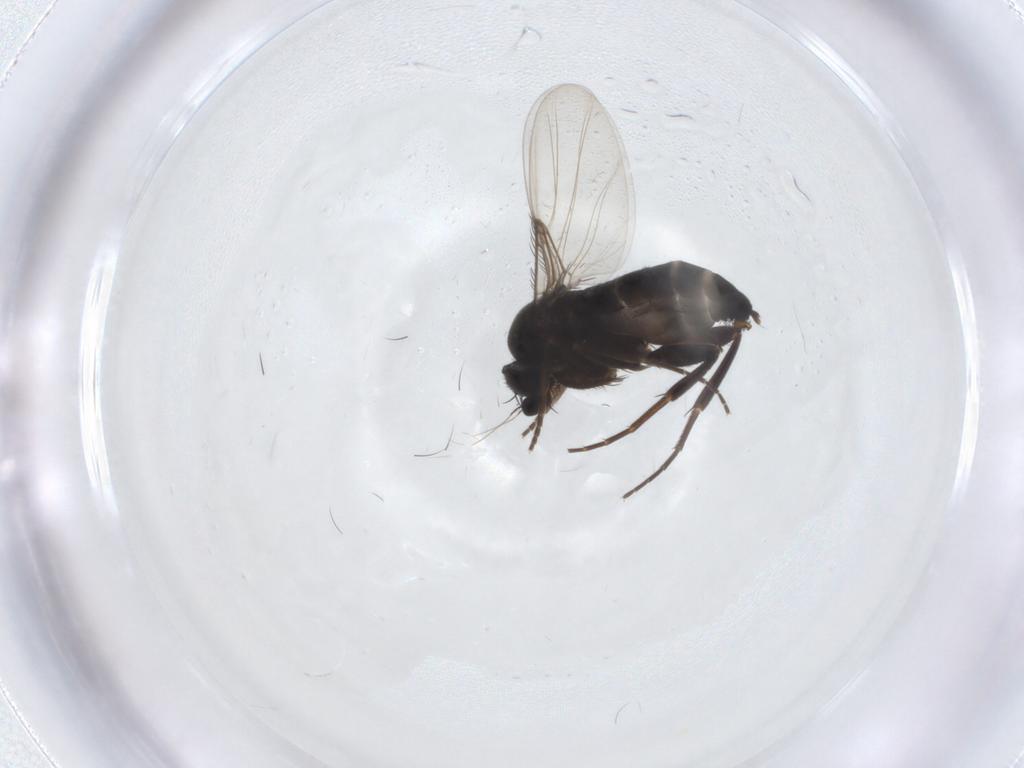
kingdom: Animalia
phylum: Arthropoda
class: Insecta
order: Diptera
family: Phoridae
